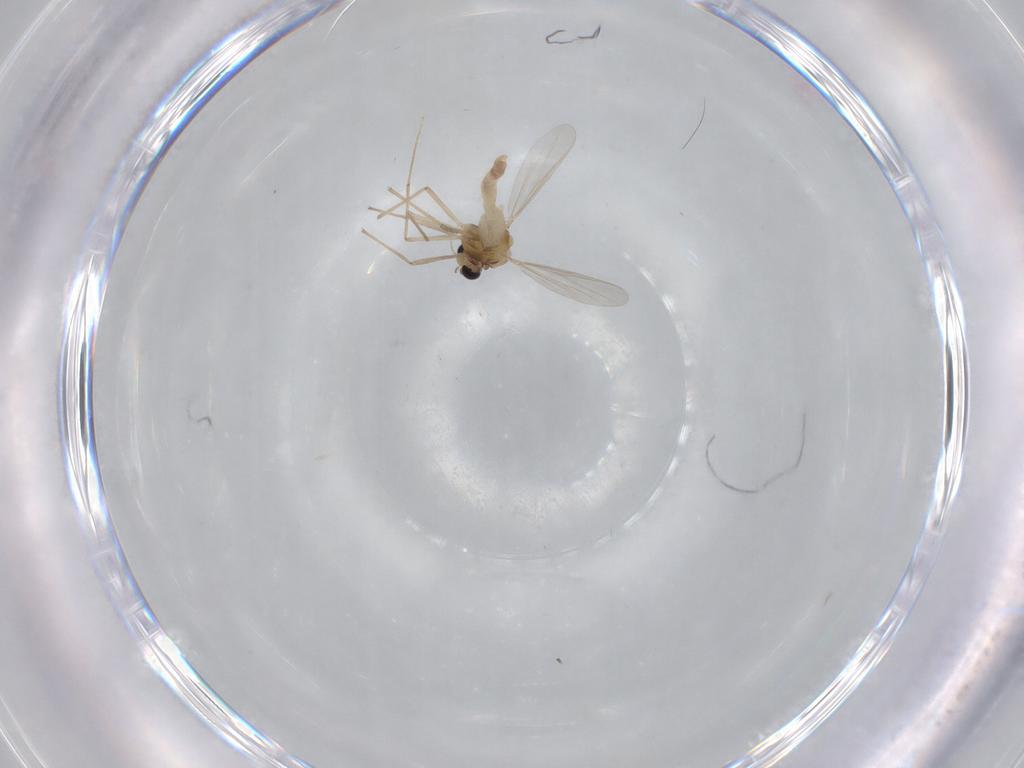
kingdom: Animalia
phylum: Arthropoda
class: Insecta
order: Diptera
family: Chironomidae
